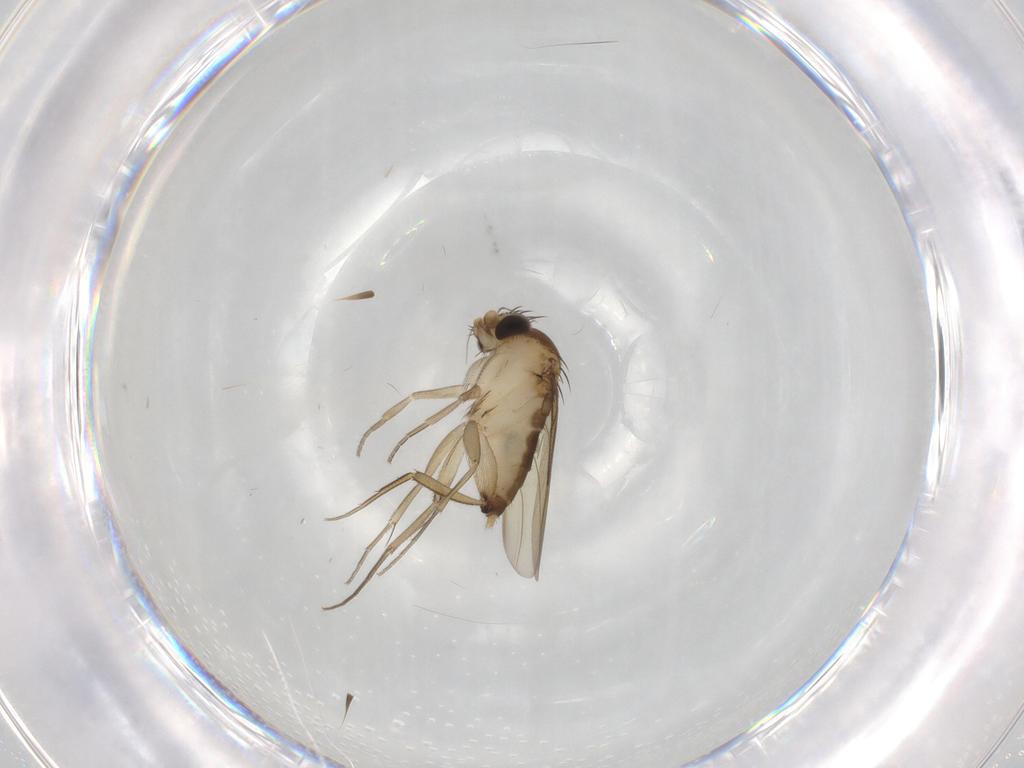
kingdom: Animalia
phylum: Arthropoda
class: Insecta
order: Diptera
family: Phoridae
